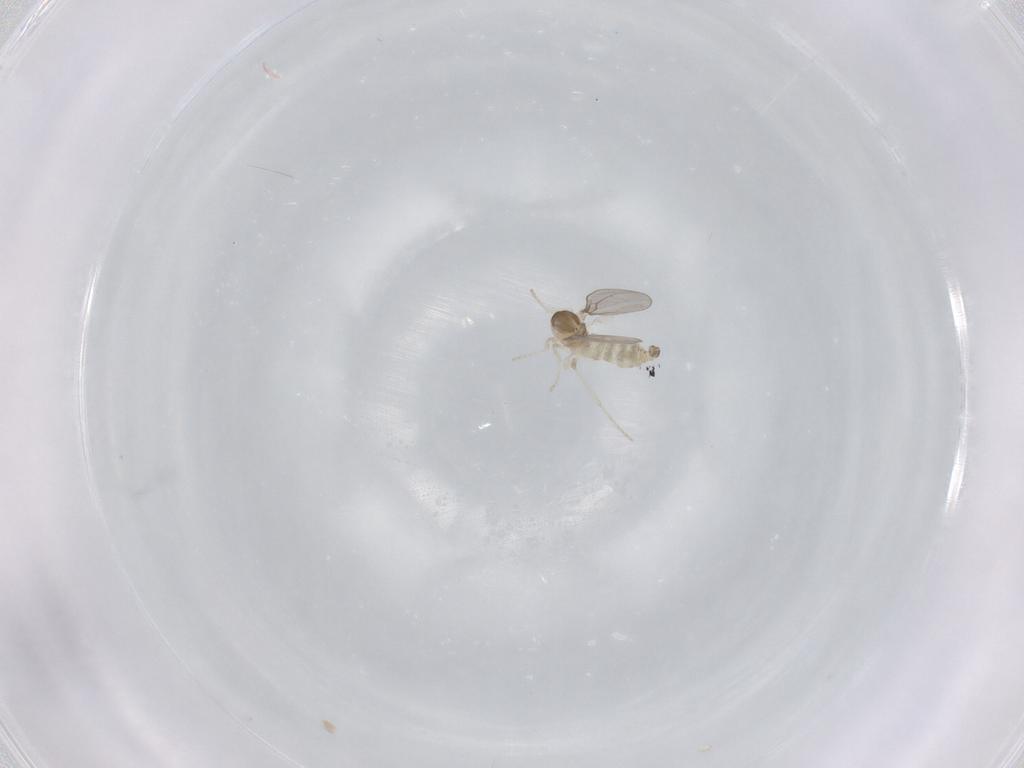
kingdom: Animalia
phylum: Arthropoda
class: Insecta
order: Diptera
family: Cecidomyiidae
